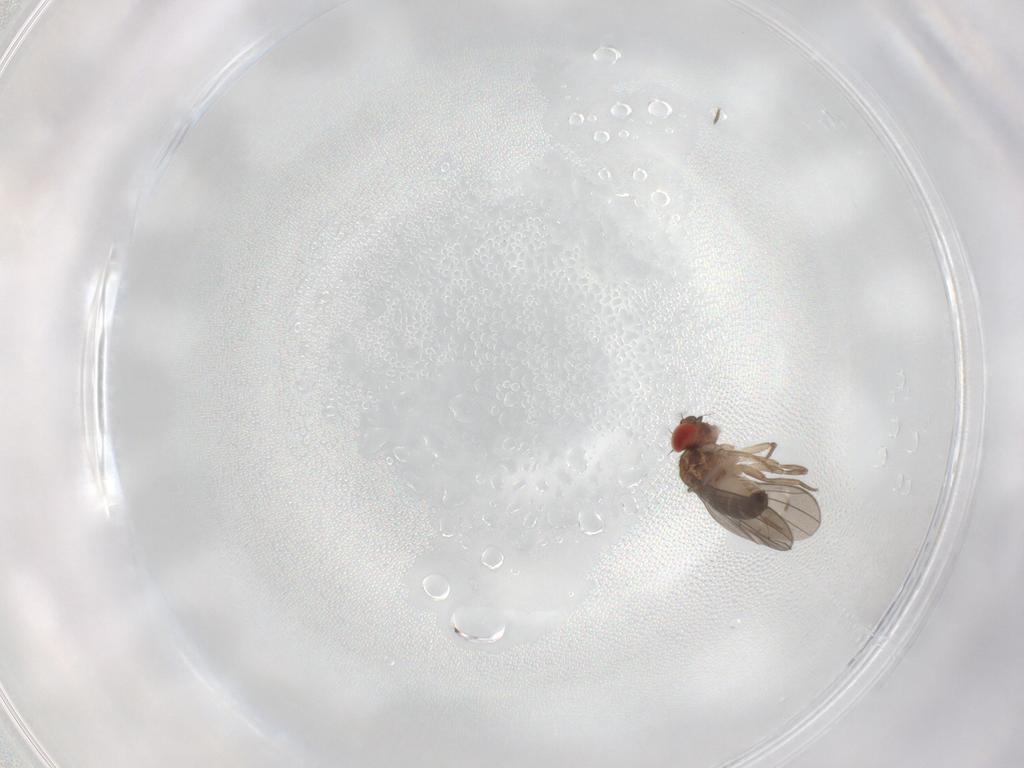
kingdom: Animalia
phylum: Arthropoda
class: Insecta
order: Diptera
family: Drosophilidae
